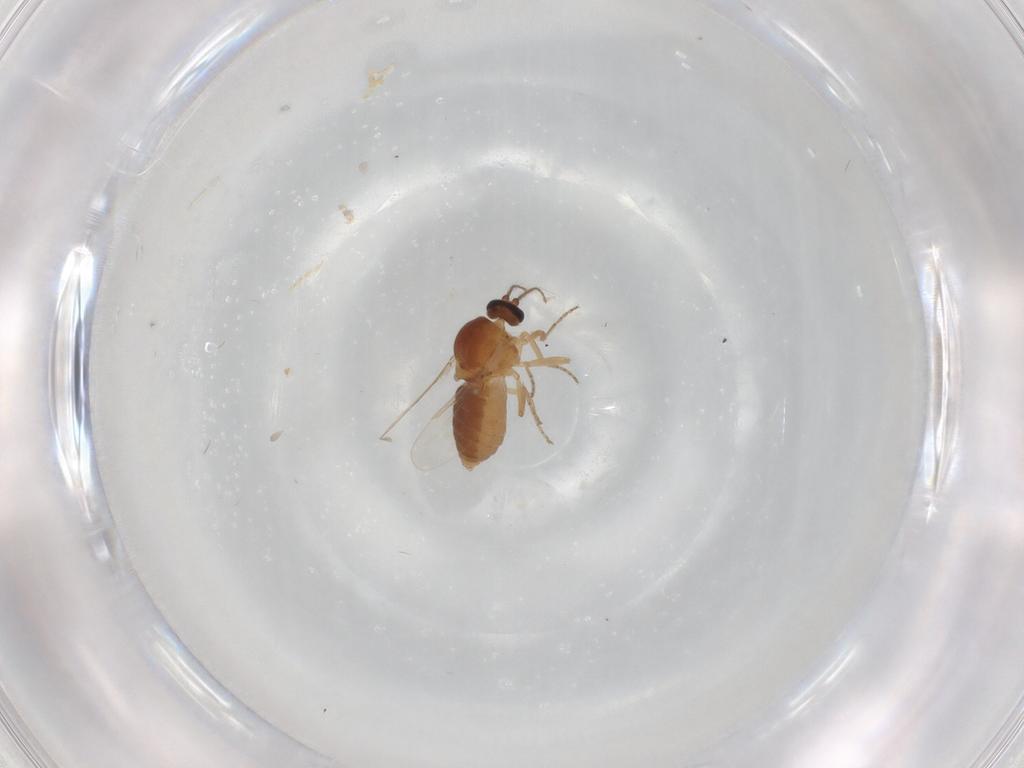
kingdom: Animalia
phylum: Arthropoda
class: Insecta
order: Diptera
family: Ceratopogonidae
